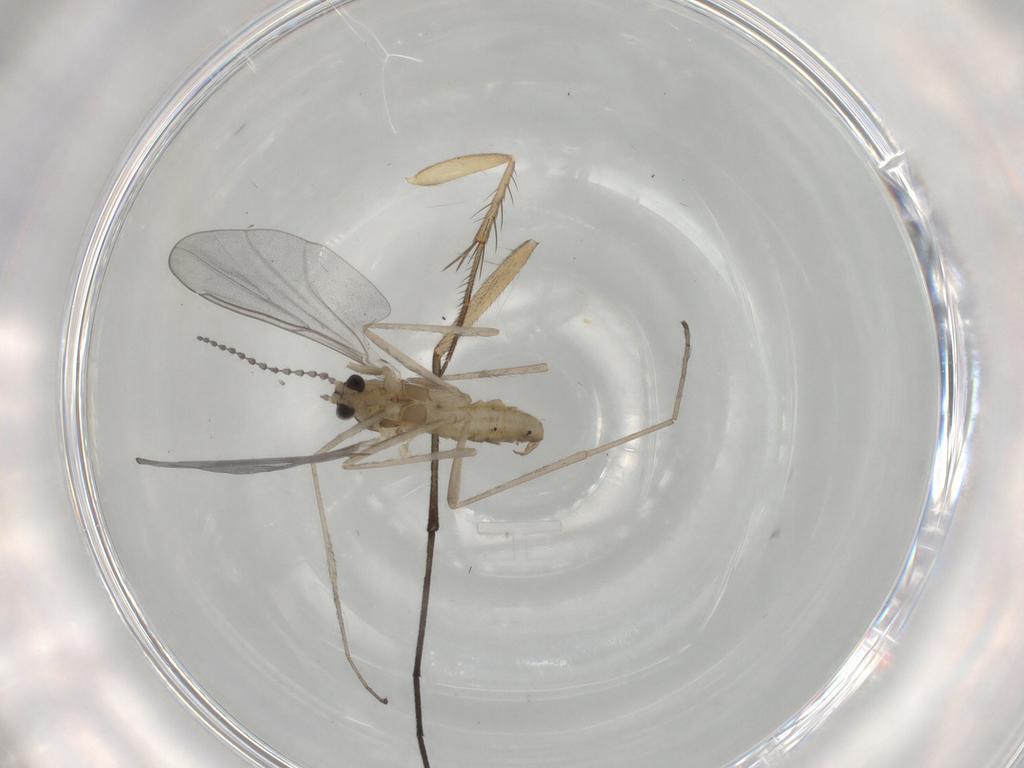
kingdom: Animalia
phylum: Arthropoda
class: Insecta
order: Diptera
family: Cecidomyiidae
